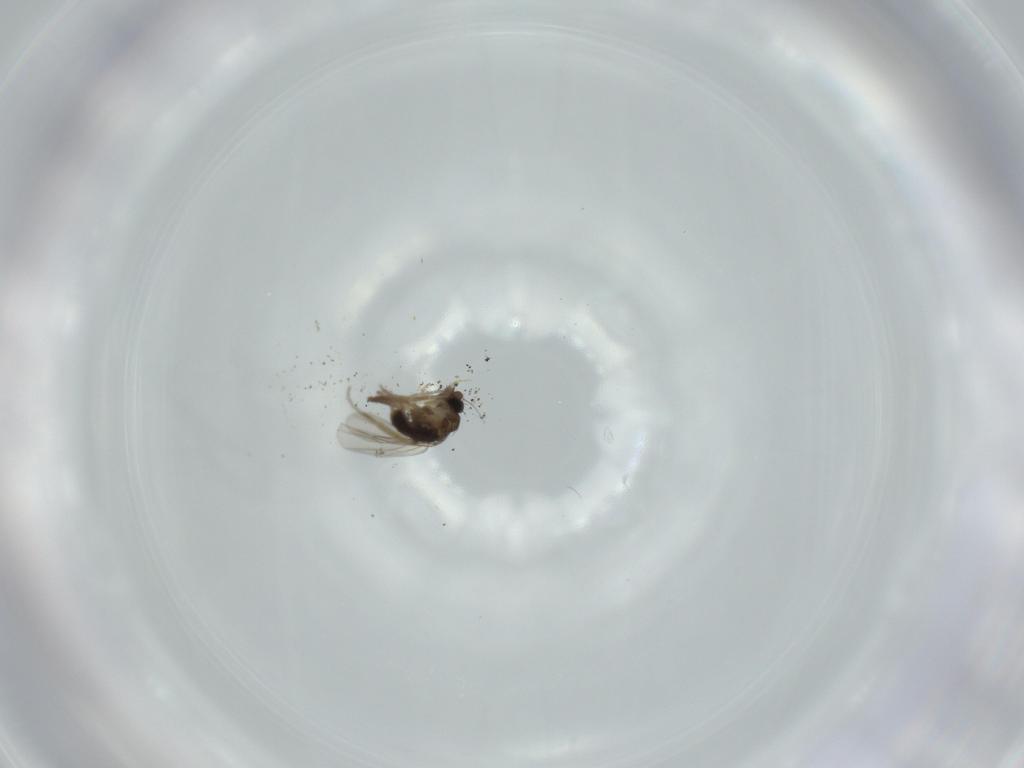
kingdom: Animalia
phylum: Arthropoda
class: Insecta
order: Diptera
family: Phoridae
